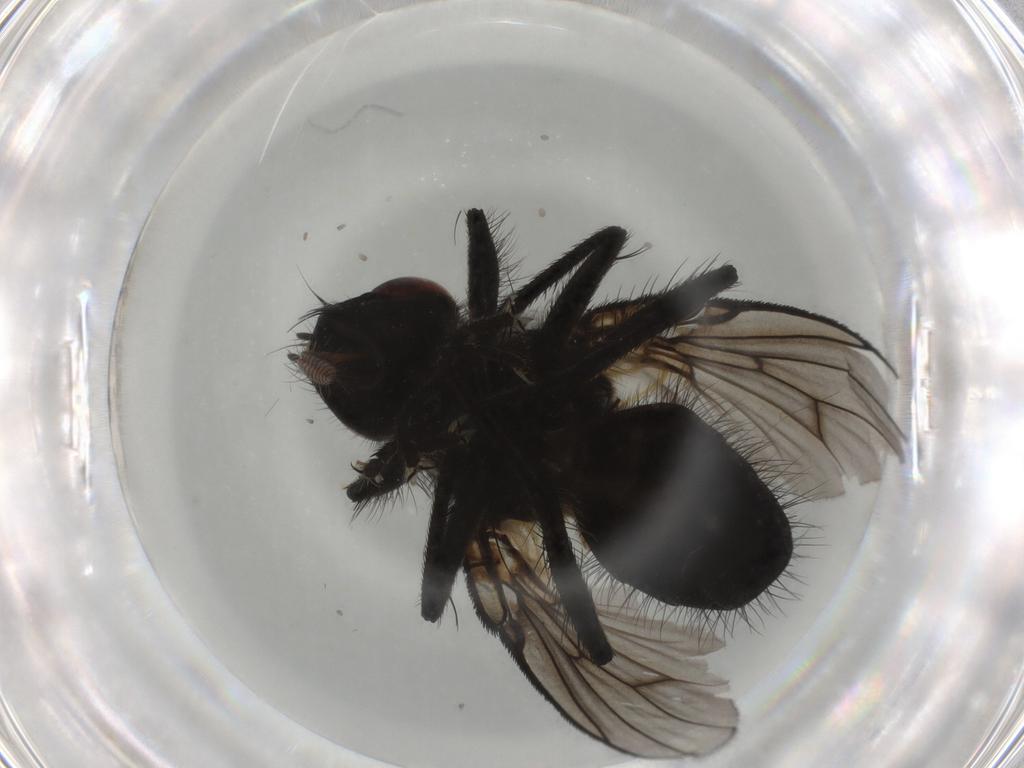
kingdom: Animalia
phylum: Arthropoda
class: Insecta
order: Diptera
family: Muscidae
